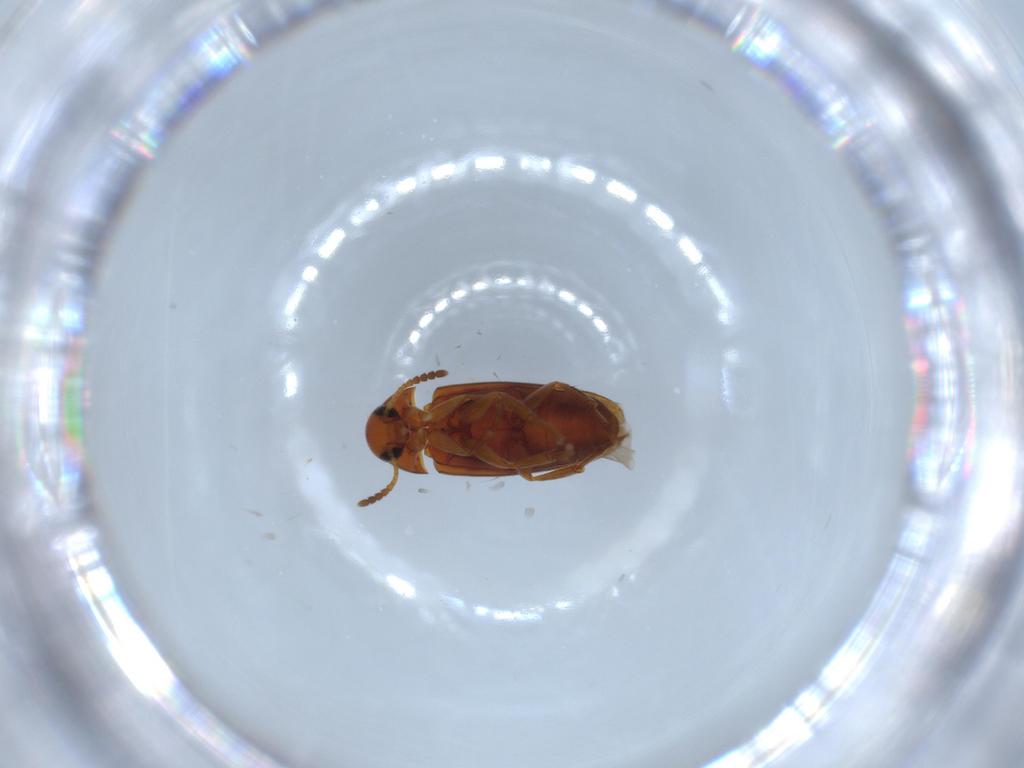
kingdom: Animalia
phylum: Arthropoda
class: Insecta
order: Coleoptera
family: Scraptiidae
